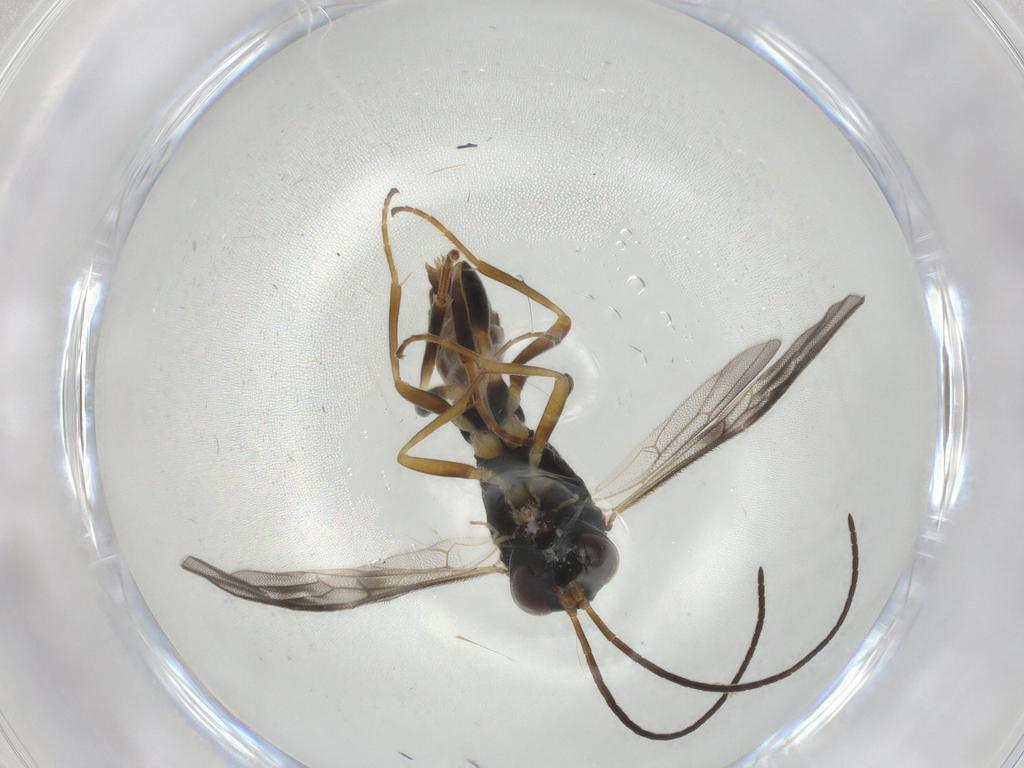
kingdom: Animalia
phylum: Arthropoda
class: Insecta
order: Hymenoptera
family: Ichneumonidae
